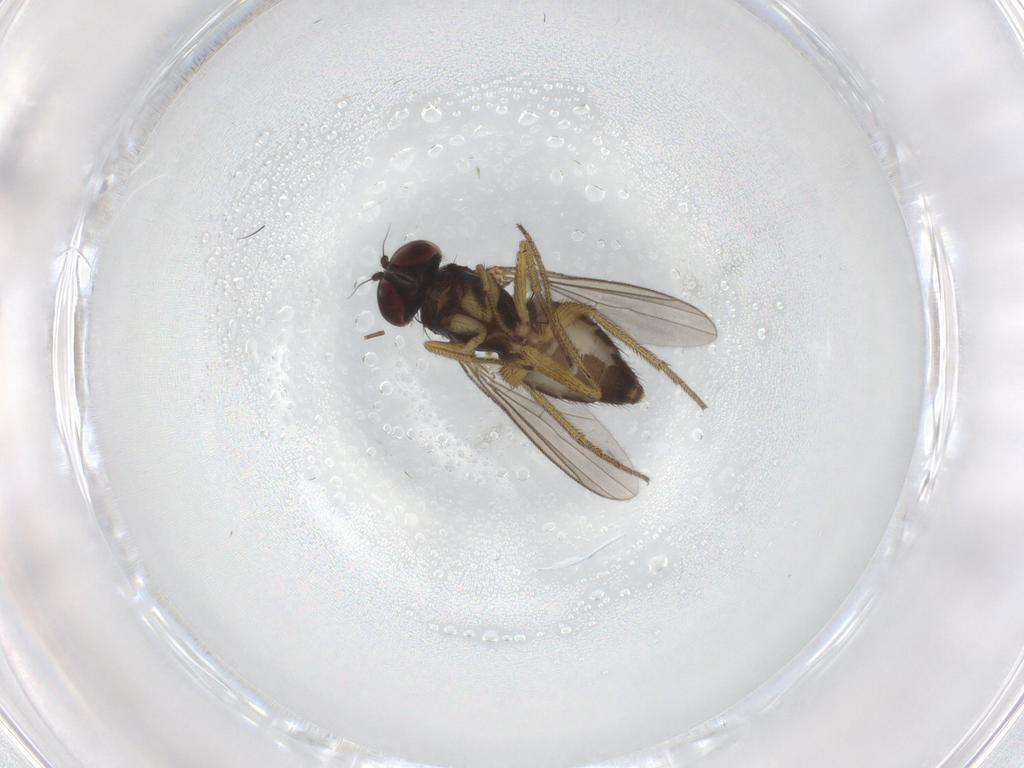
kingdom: Animalia
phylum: Arthropoda
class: Insecta
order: Diptera
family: Dolichopodidae
